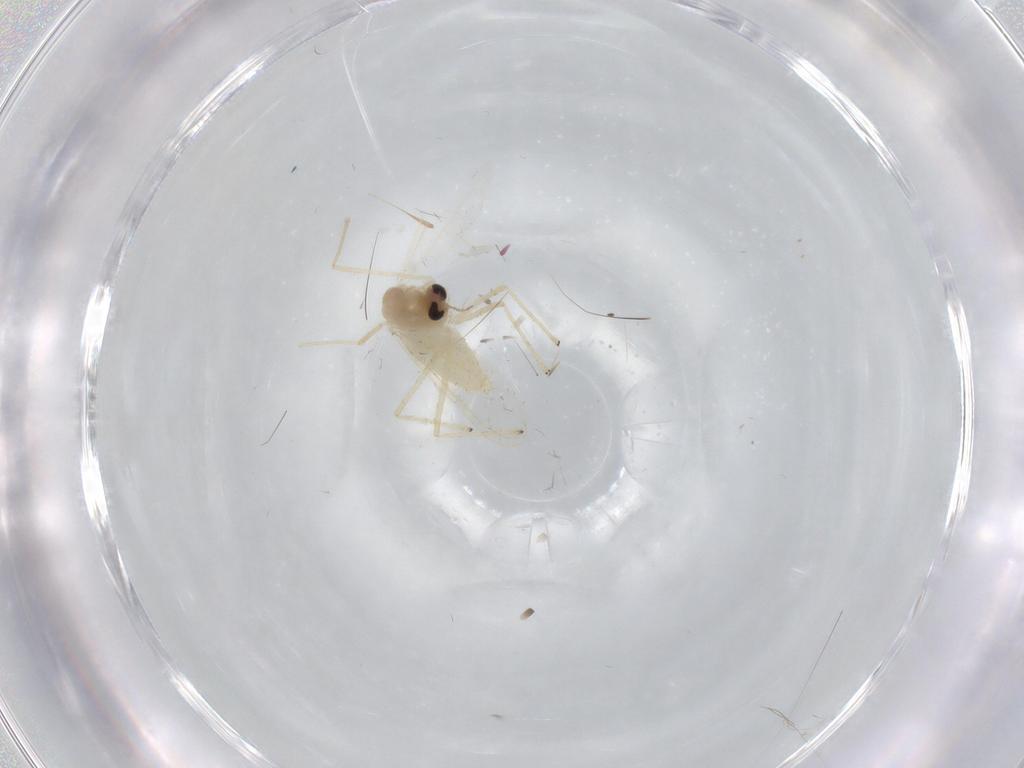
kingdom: Animalia
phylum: Arthropoda
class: Insecta
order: Diptera
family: Chironomidae
